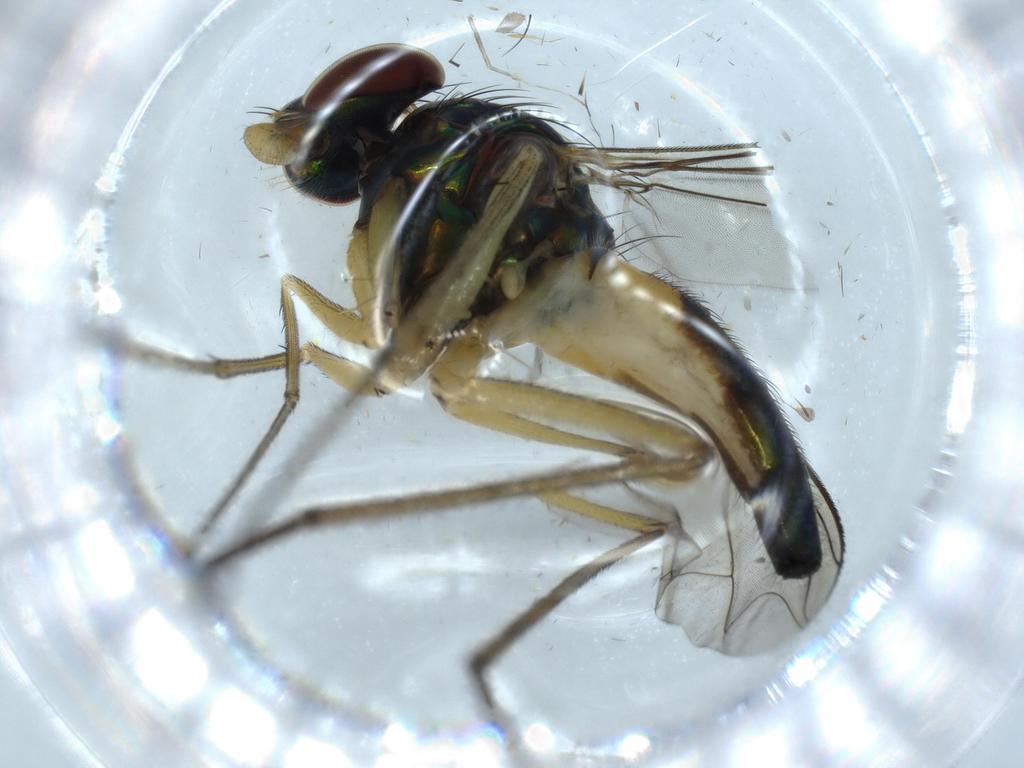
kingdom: Animalia
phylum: Arthropoda
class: Insecta
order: Diptera
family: Dolichopodidae
